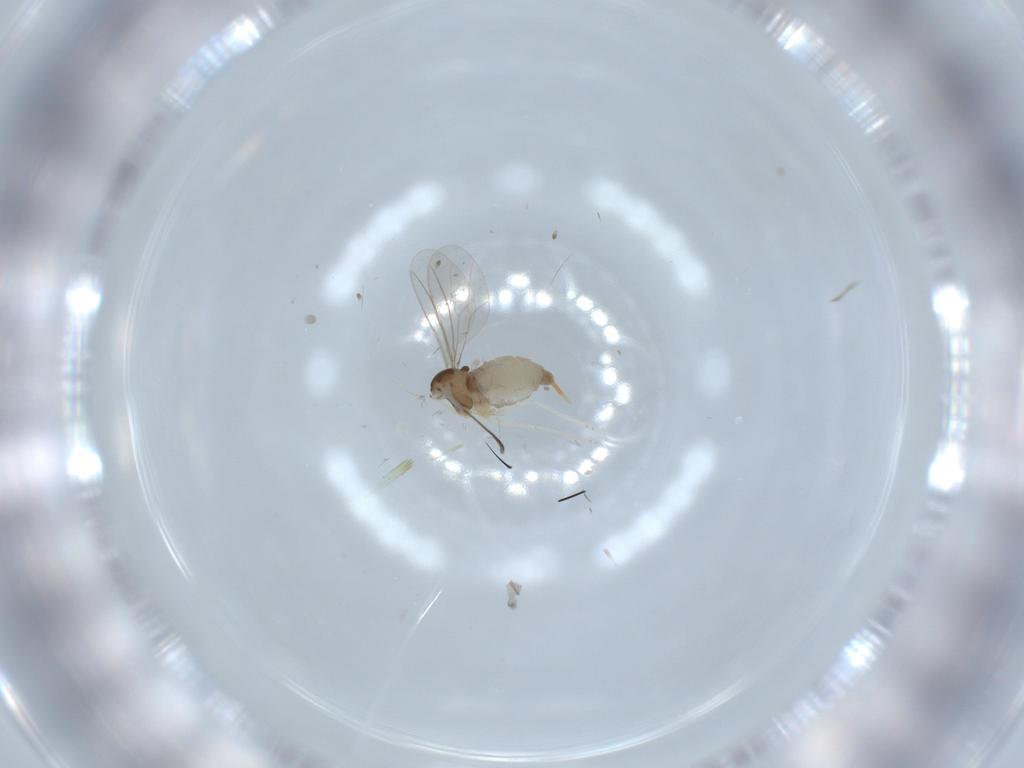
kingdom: Animalia
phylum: Arthropoda
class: Insecta
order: Diptera
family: Chironomidae
